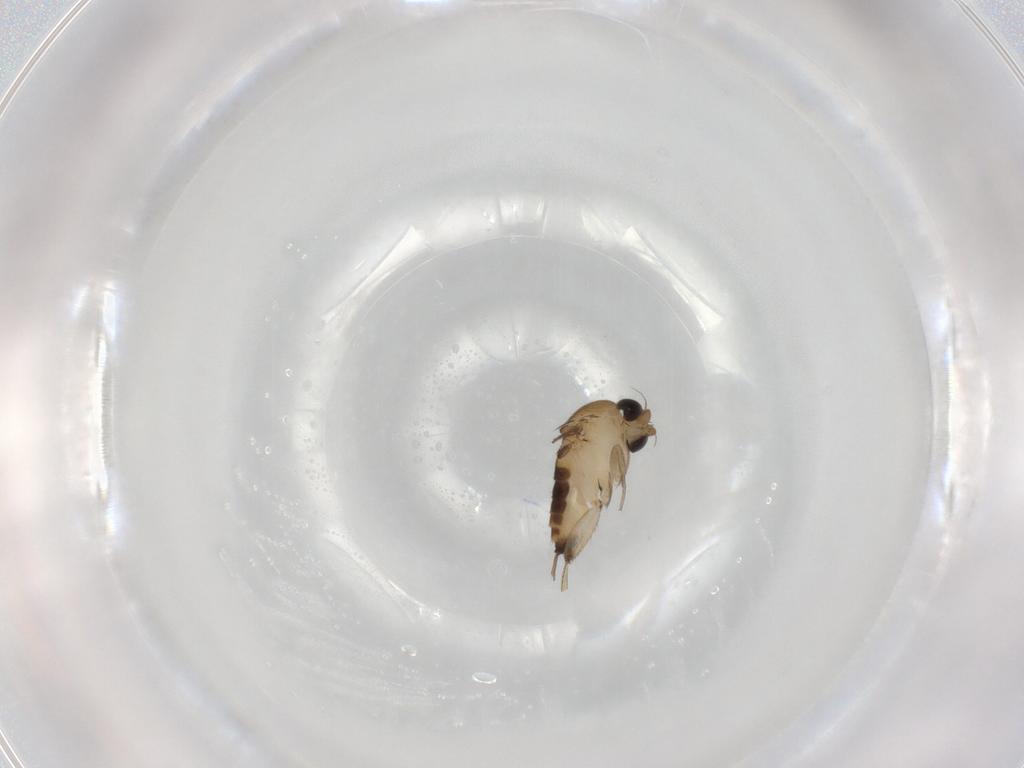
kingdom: Animalia
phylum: Arthropoda
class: Insecta
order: Diptera
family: Phoridae
